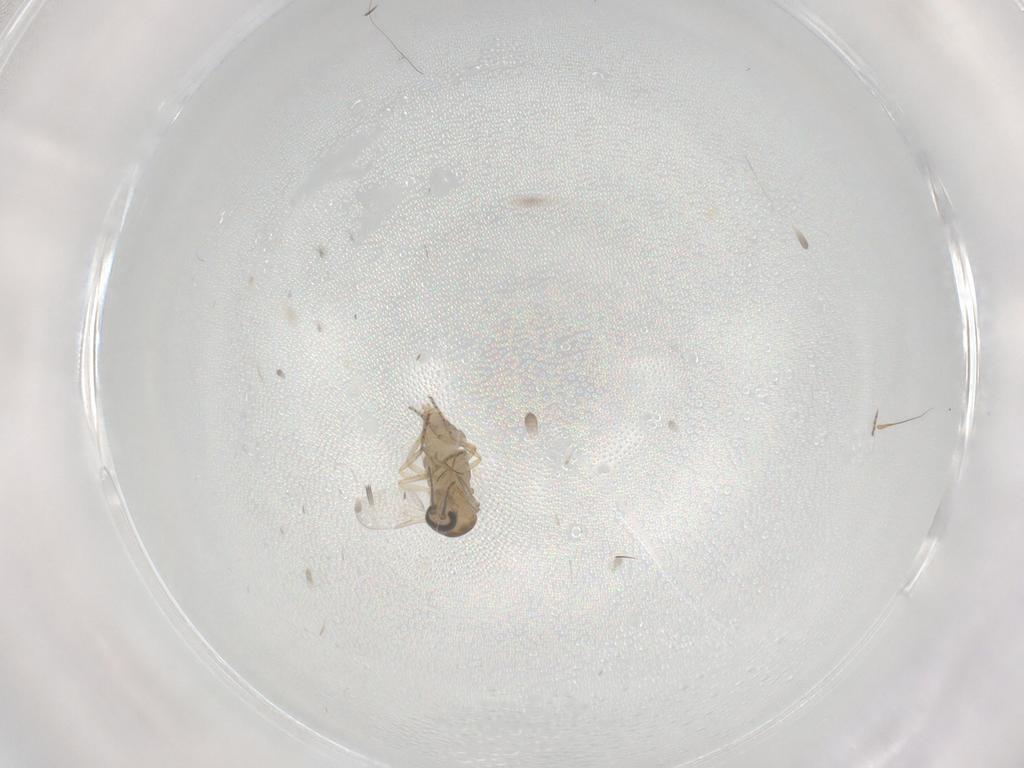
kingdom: Animalia
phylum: Arthropoda
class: Insecta
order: Diptera
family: Ceratopogonidae
